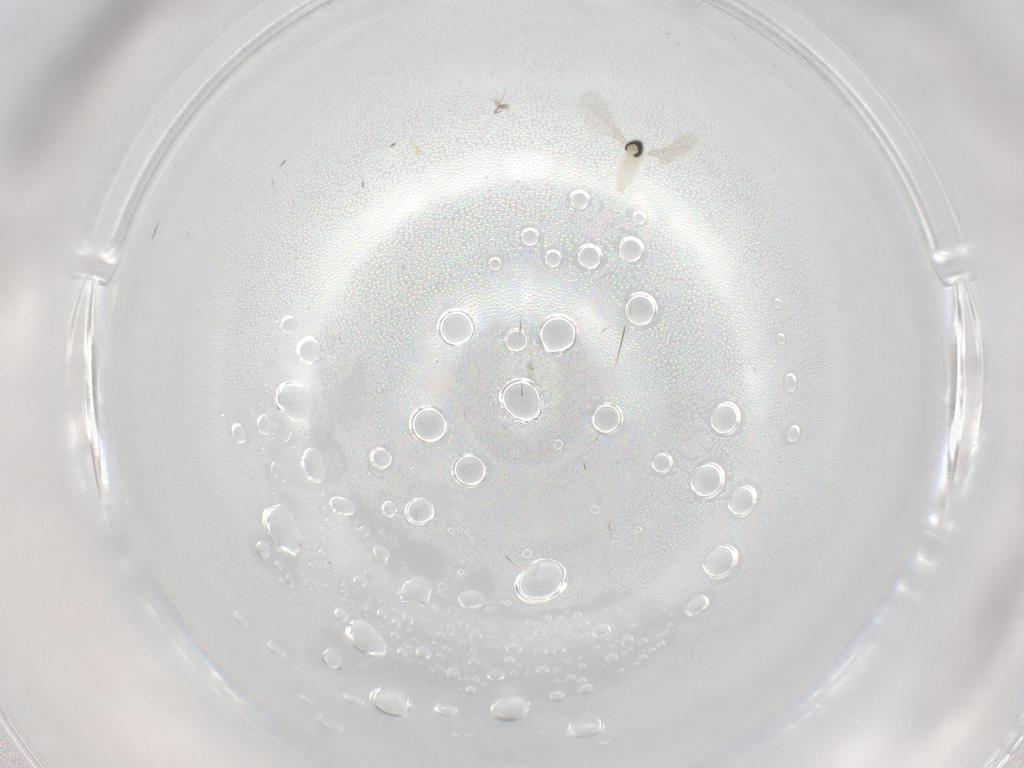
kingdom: Animalia
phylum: Arthropoda
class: Insecta
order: Diptera
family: Cecidomyiidae
